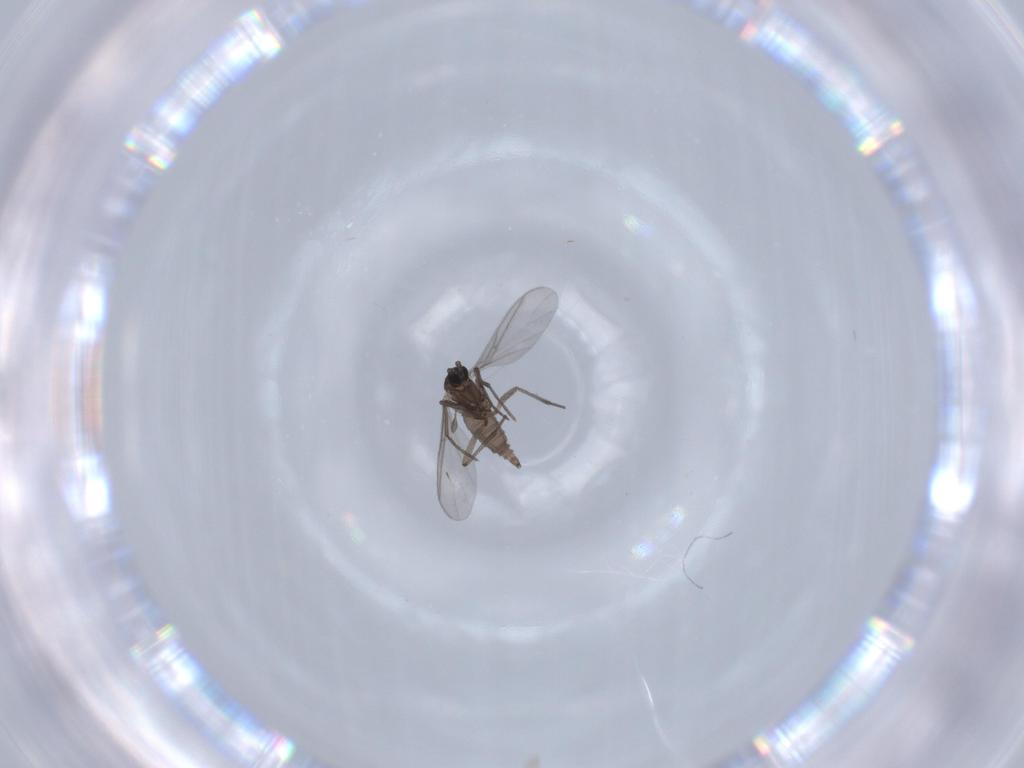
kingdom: Animalia
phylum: Arthropoda
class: Insecta
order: Diptera
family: Sciaridae
